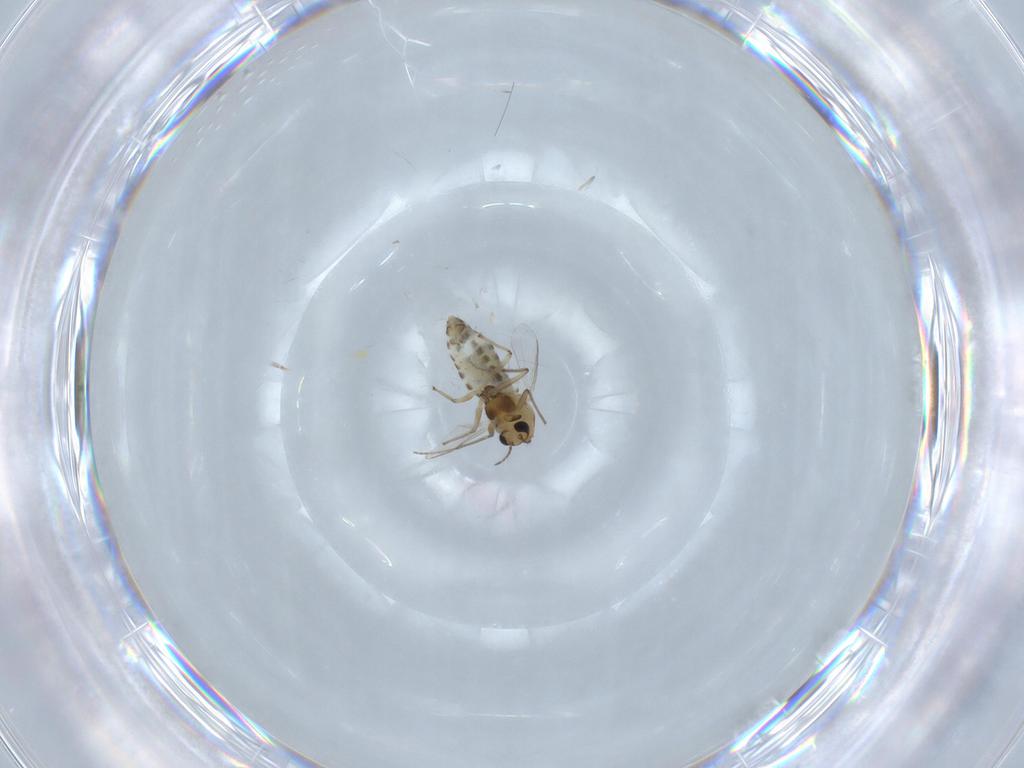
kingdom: Animalia
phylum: Arthropoda
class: Insecta
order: Diptera
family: Chironomidae
